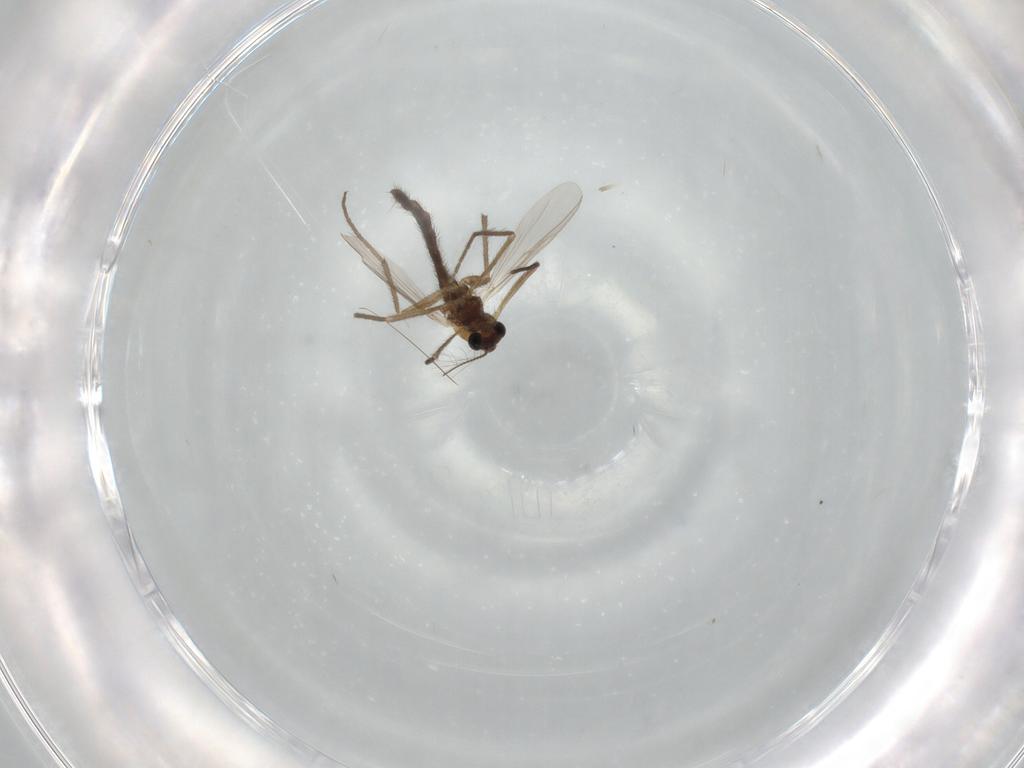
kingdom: Animalia
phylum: Arthropoda
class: Insecta
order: Diptera
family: Chironomidae
